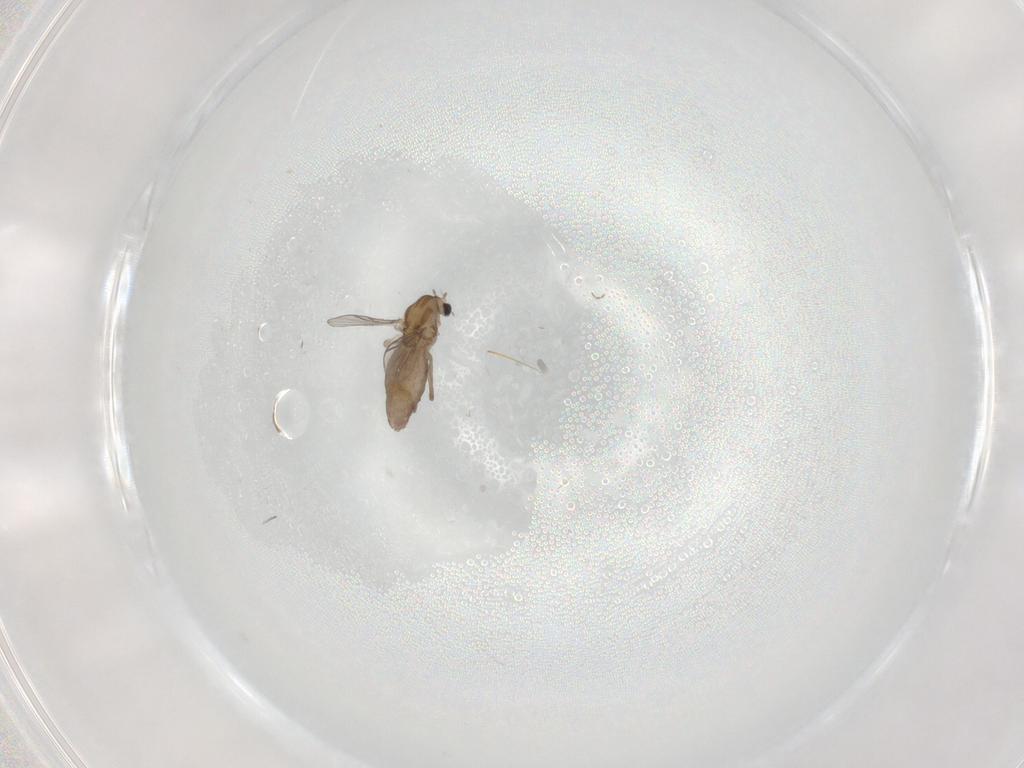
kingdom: Animalia
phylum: Arthropoda
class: Insecta
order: Diptera
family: Chironomidae
